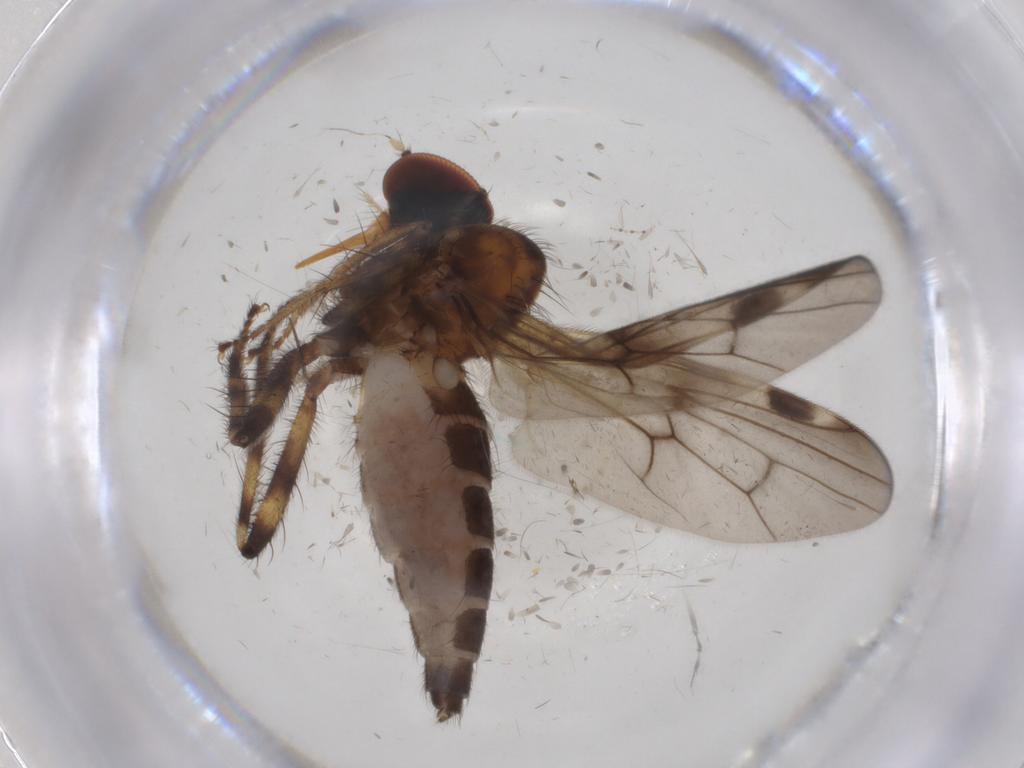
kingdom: Animalia
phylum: Arthropoda
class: Insecta
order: Diptera
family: Hybotidae
